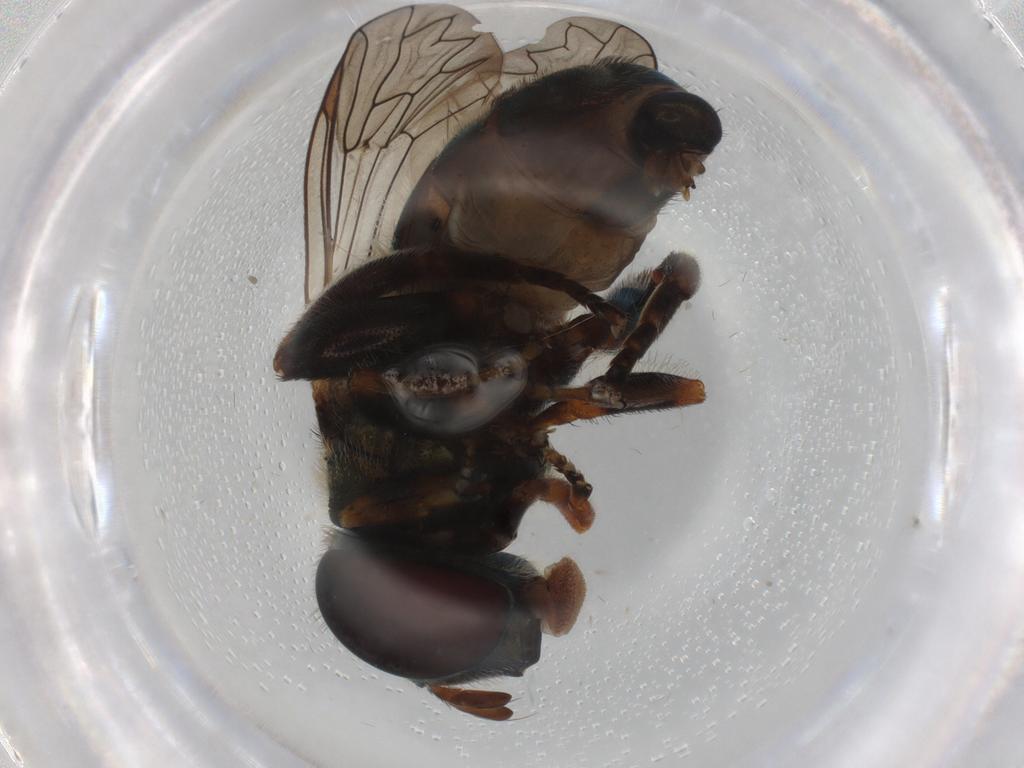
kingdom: Animalia
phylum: Arthropoda
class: Insecta
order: Diptera
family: Syrphidae
